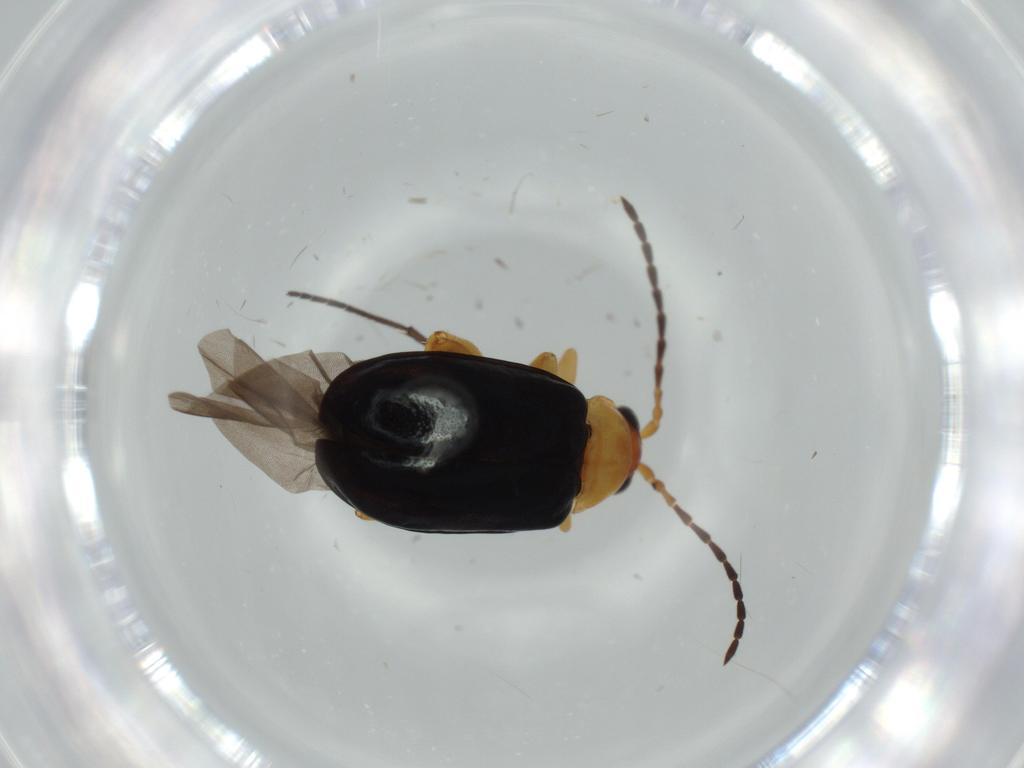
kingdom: Animalia
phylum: Arthropoda
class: Insecta
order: Coleoptera
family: Chrysomelidae
